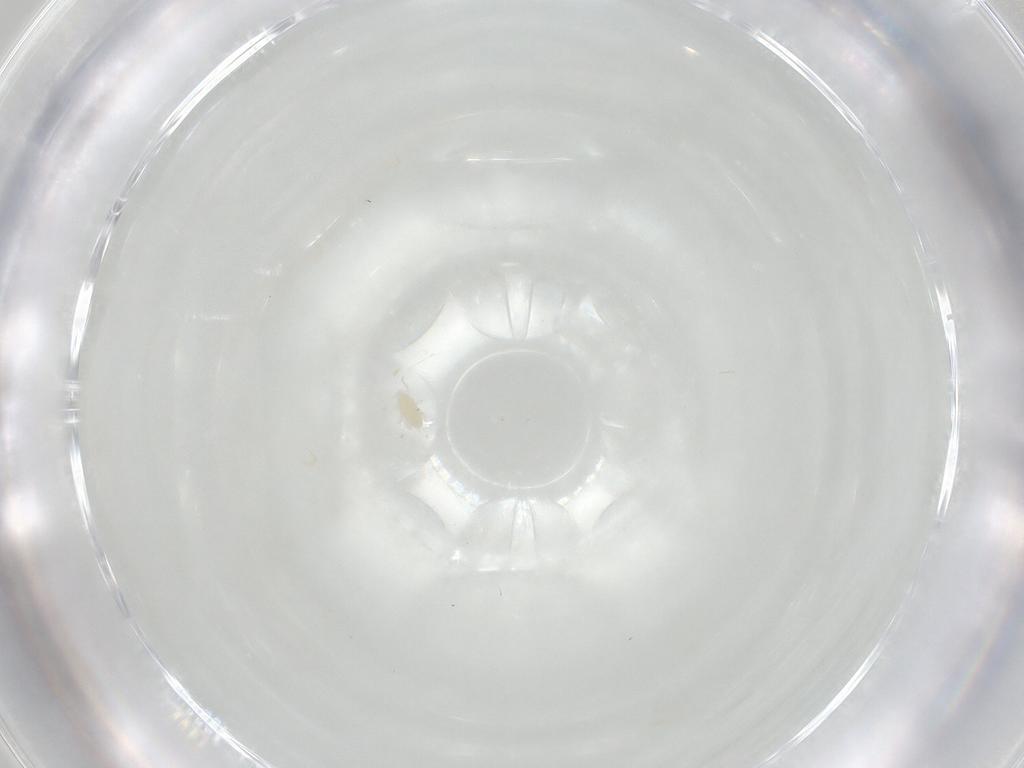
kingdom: Animalia
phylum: Arthropoda
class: Arachnida
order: Trombidiformes
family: Eupodidae
